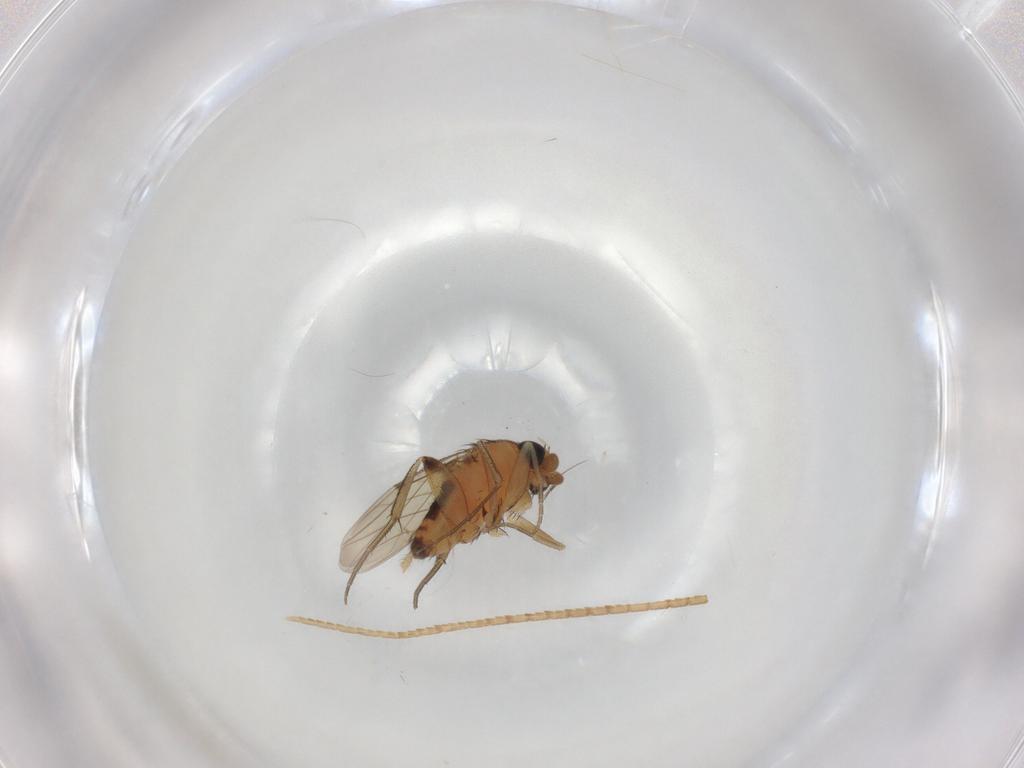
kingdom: Animalia
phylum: Arthropoda
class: Insecta
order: Diptera
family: Phoridae
